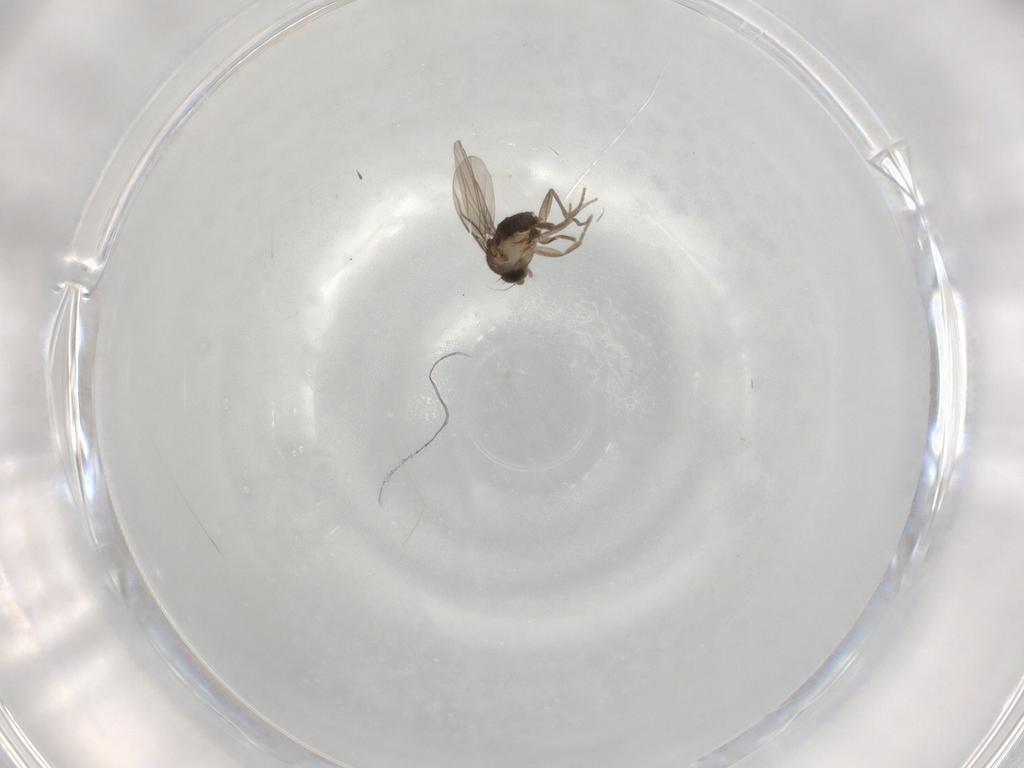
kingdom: Animalia
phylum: Arthropoda
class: Insecta
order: Diptera
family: Phoridae
